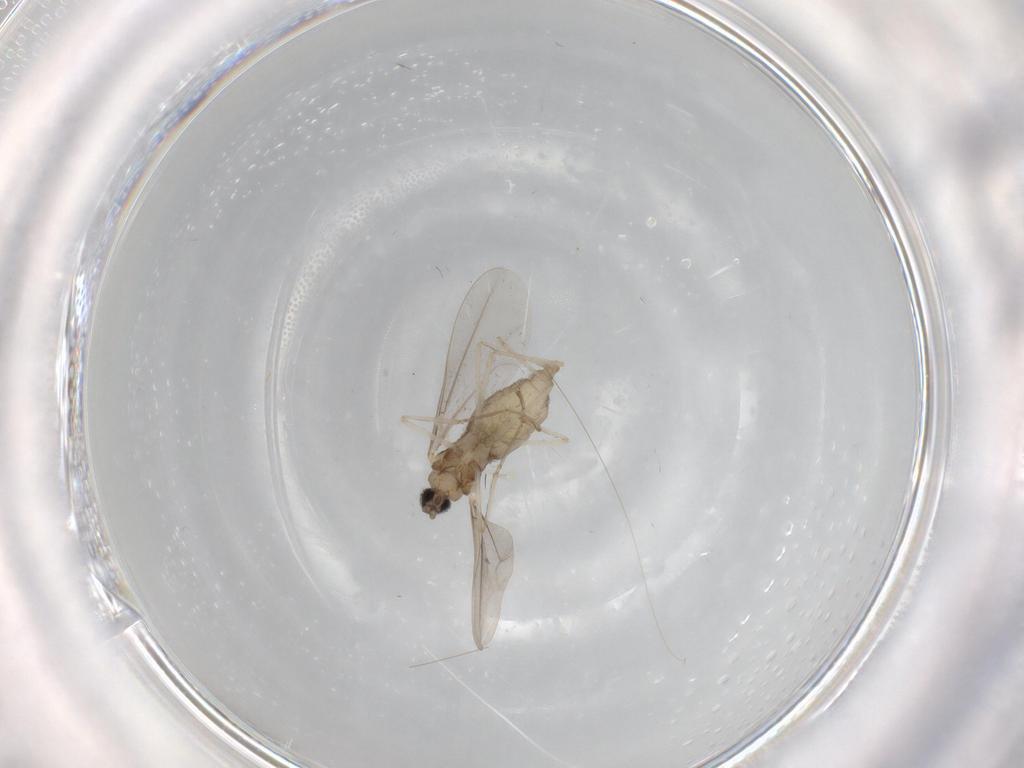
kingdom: Animalia
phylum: Arthropoda
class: Insecta
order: Diptera
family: Cecidomyiidae
